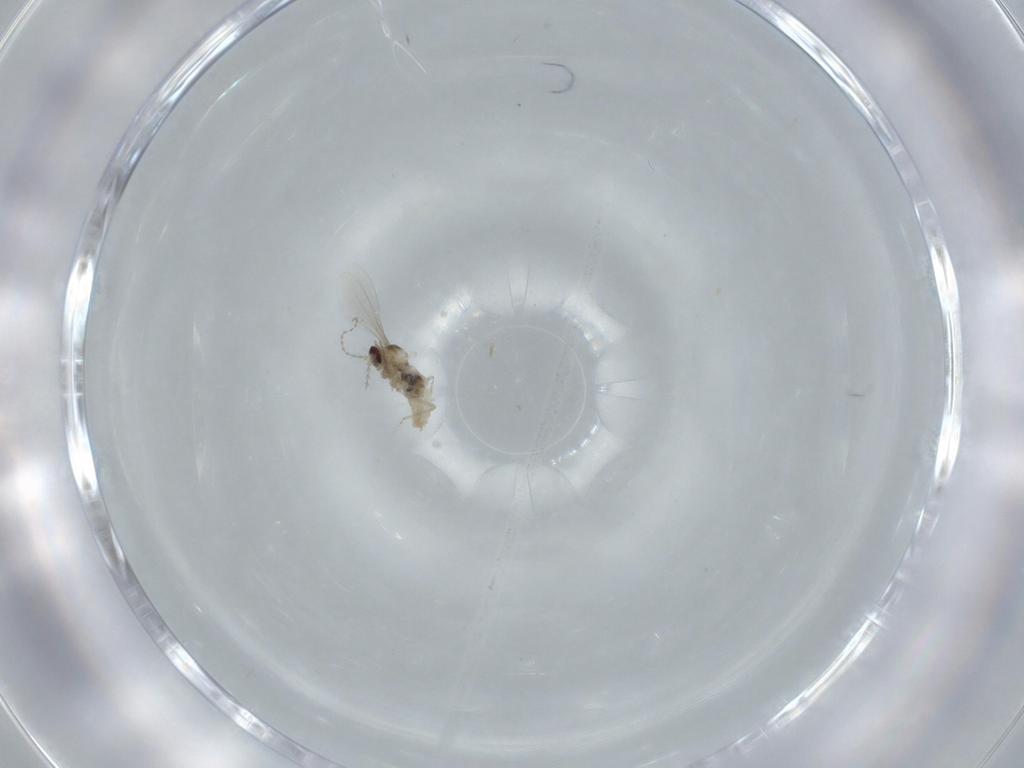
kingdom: Animalia
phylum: Arthropoda
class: Insecta
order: Diptera
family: Cecidomyiidae
